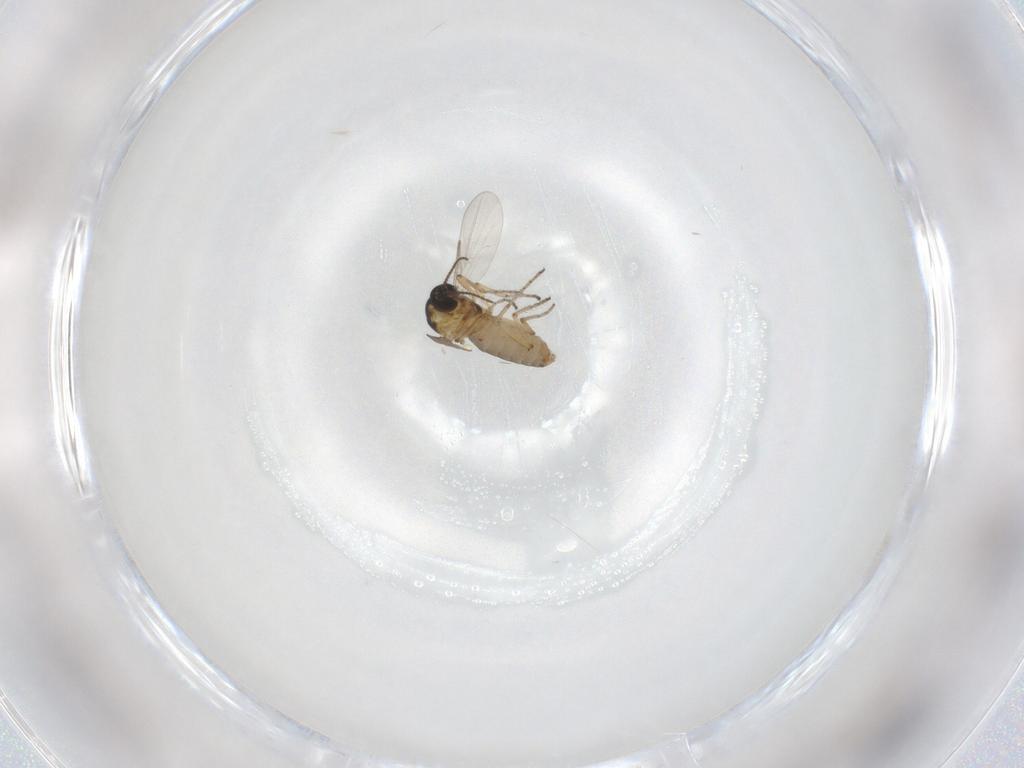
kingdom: Animalia
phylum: Arthropoda
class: Insecta
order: Diptera
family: Ceratopogonidae
